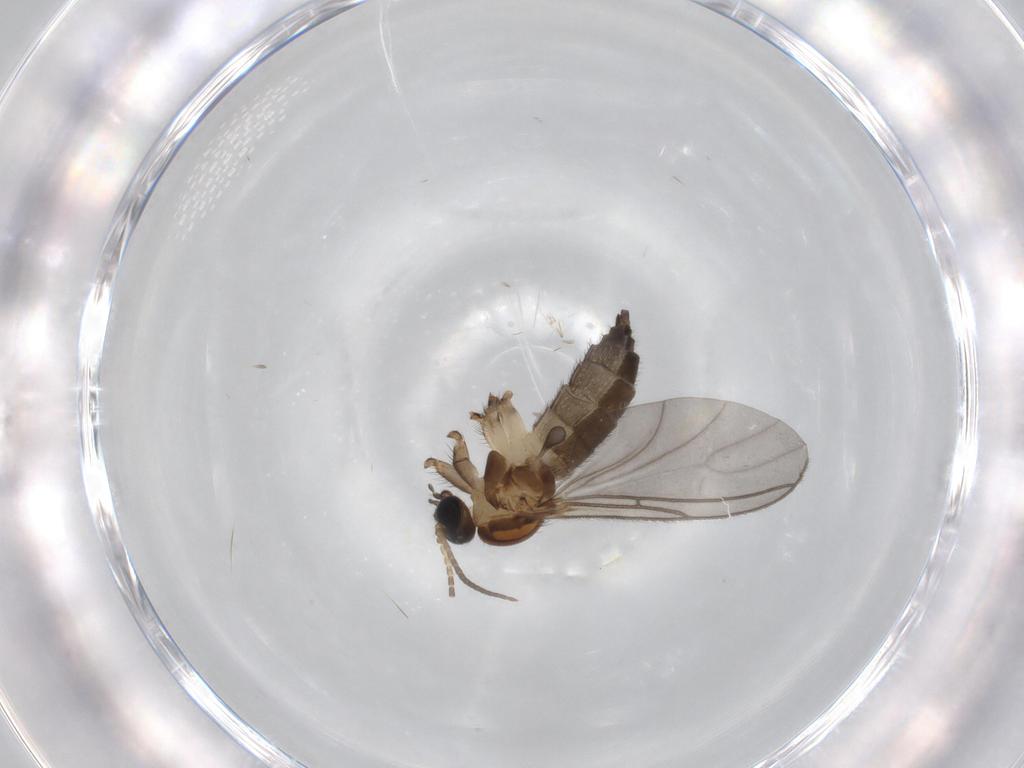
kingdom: Animalia
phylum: Arthropoda
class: Insecta
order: Diptera
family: Sciaridae
